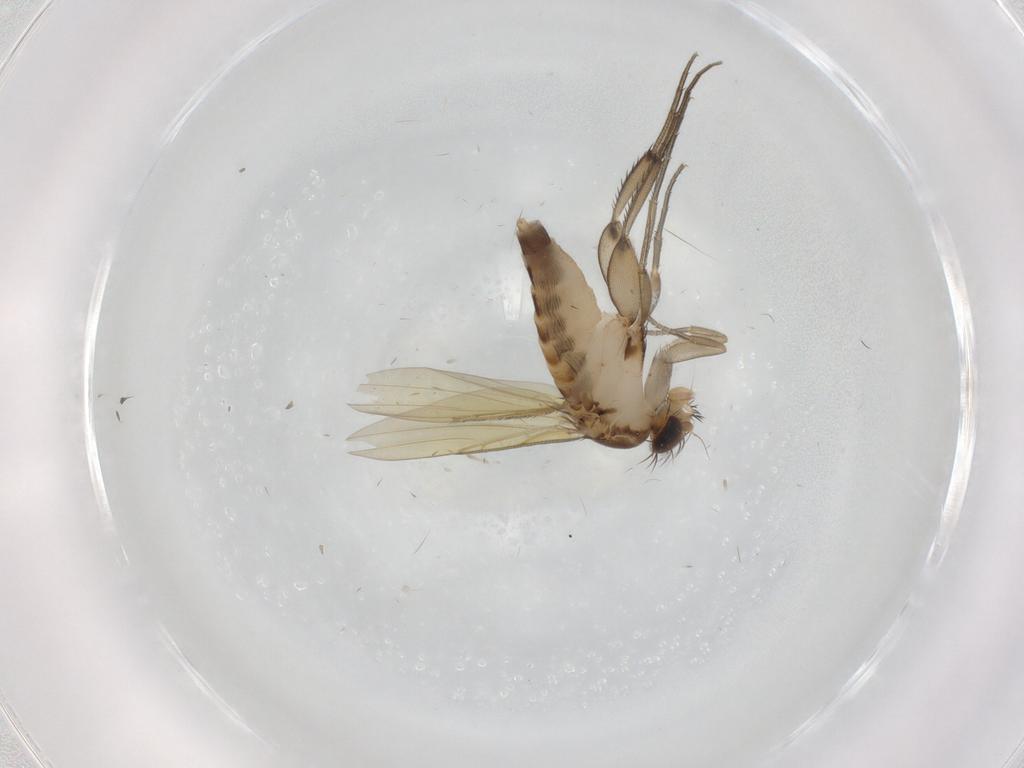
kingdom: Animalia
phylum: Arthropoda
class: Insecta
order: Diptera
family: Phoridae
